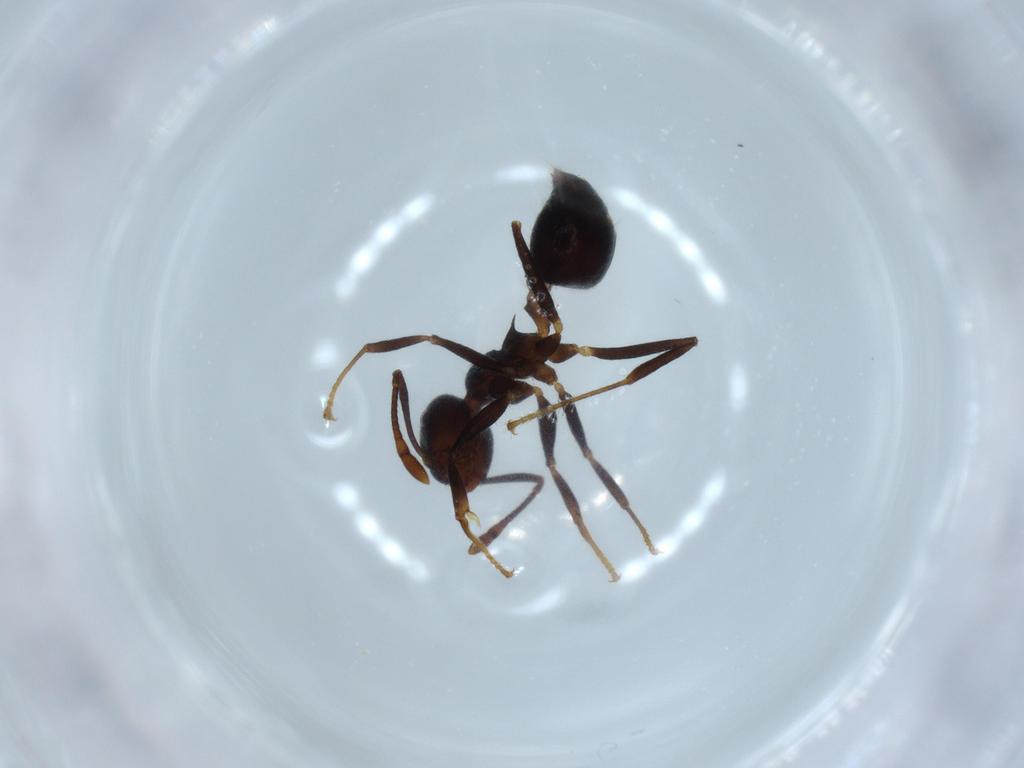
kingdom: Animalia
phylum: Arthropoda
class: Insecta
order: Hymenoptera
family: Formicidae
